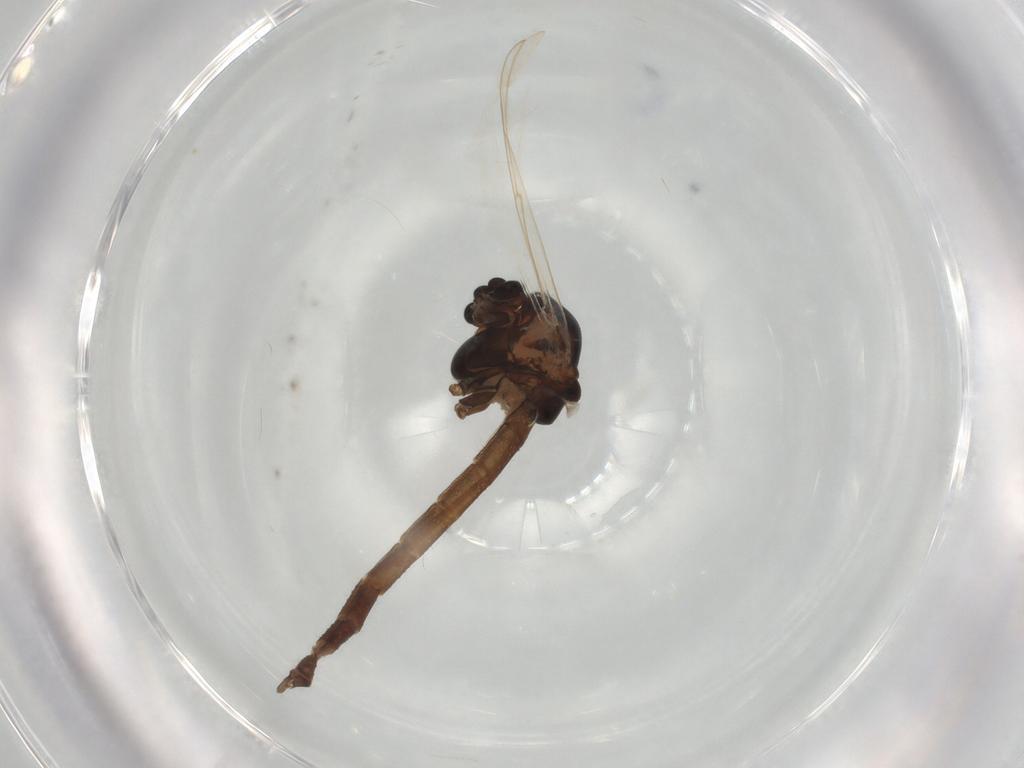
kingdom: Animalia
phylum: Arthropoda
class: Insecta
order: Diptera
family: Chironomidae
